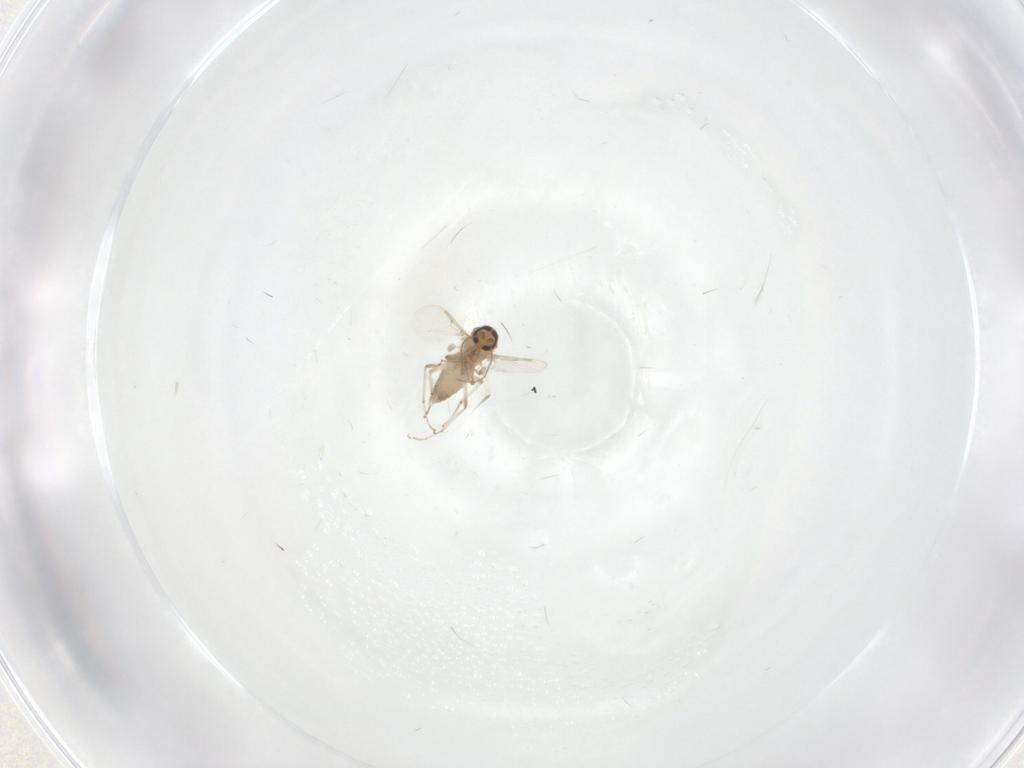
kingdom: Animalia
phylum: Arthropoda
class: Insecta
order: Diptera
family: Ceratopogonidae
